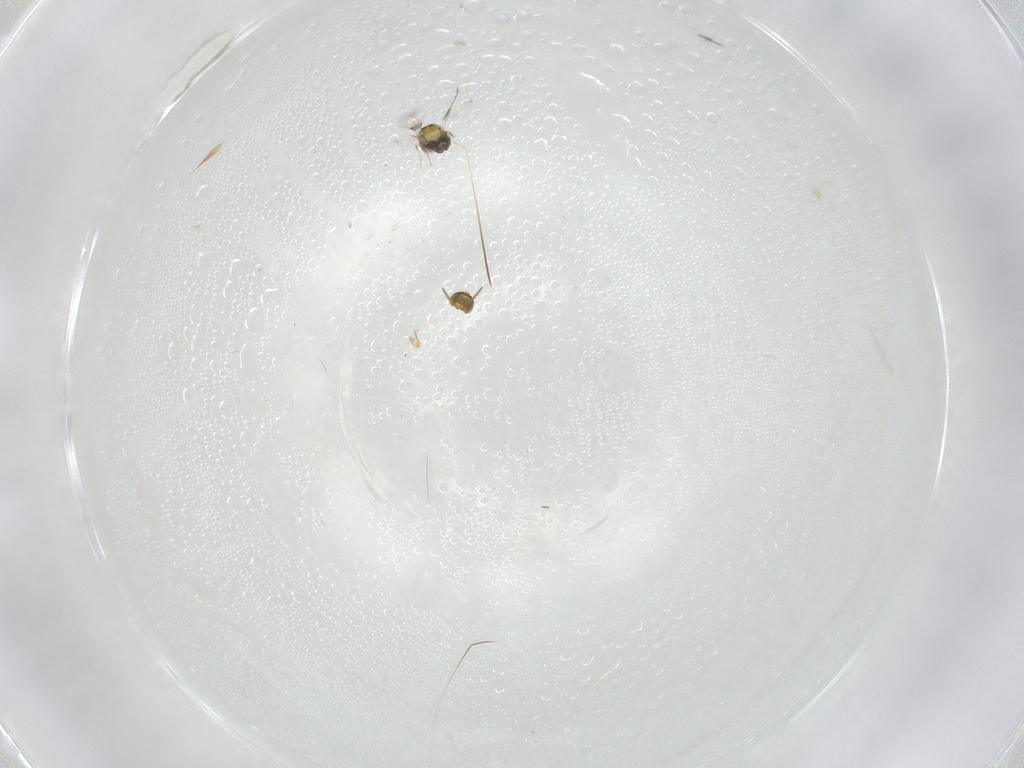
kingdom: Animalia
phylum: Arthropoda
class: Arachnida
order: Trombidiformes
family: Erythraeidae
